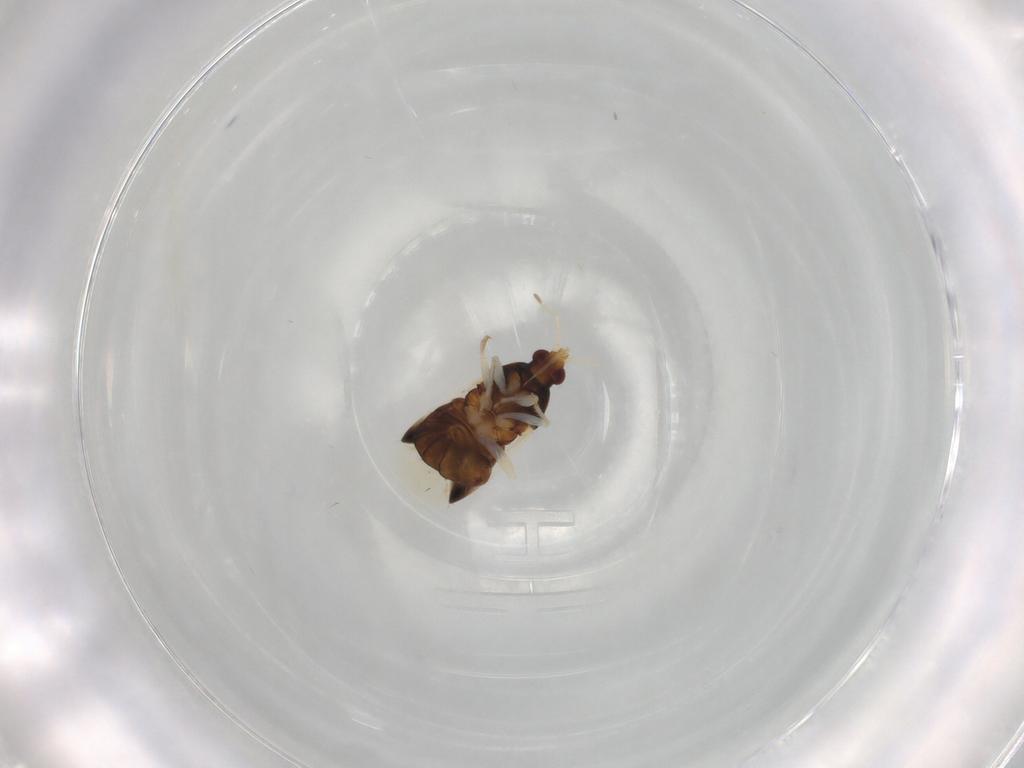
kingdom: Animalia
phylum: Arthropoda
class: Insecta
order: Hemiptera
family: Anthocoridae
